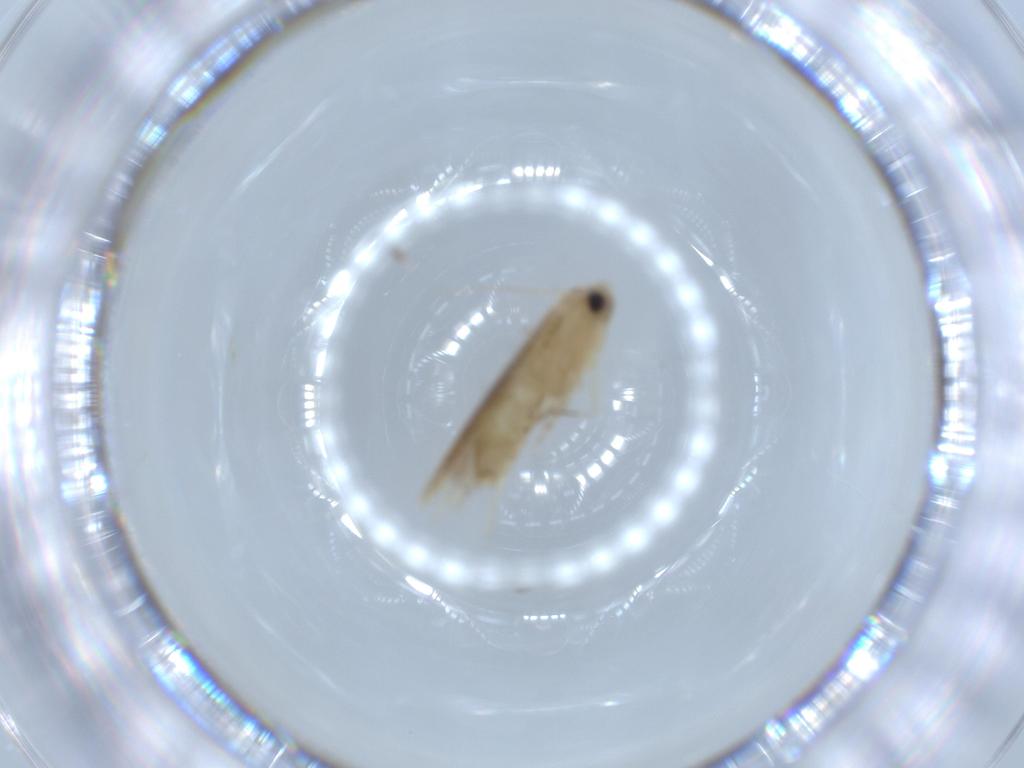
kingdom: Animalia
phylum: Arthropoda
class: Insecta
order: Lepidoptera
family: Bucculatricidae
